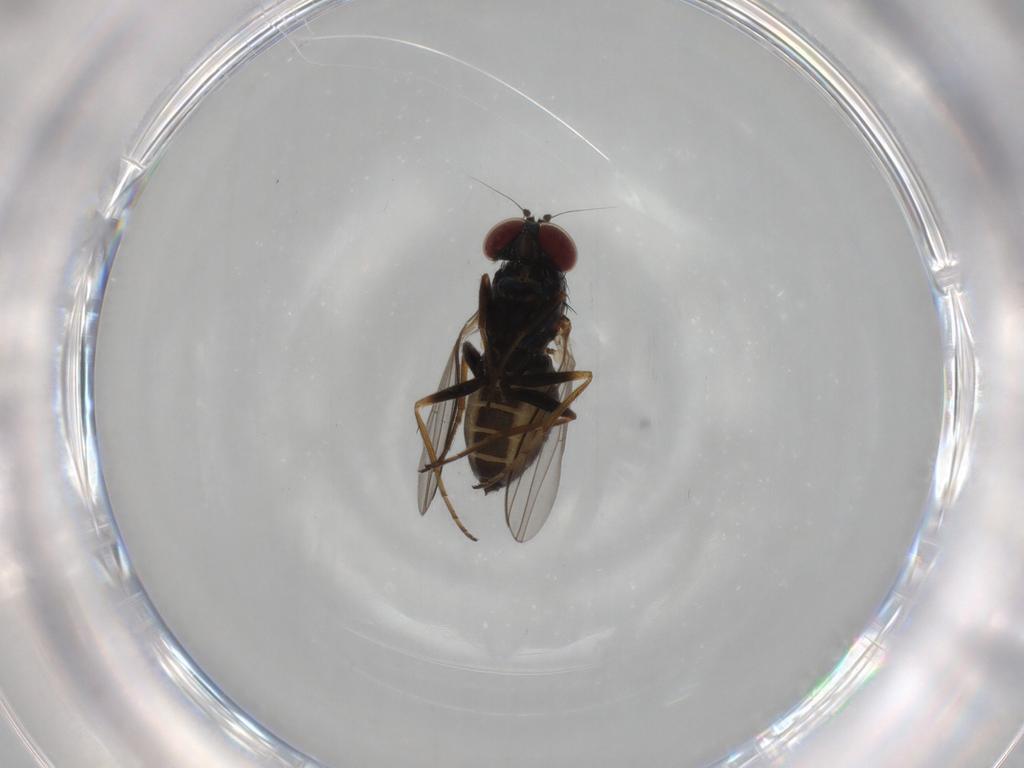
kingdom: Animalia
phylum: Arthropoda
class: Insecta
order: Diptera
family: Dolichopodidae
